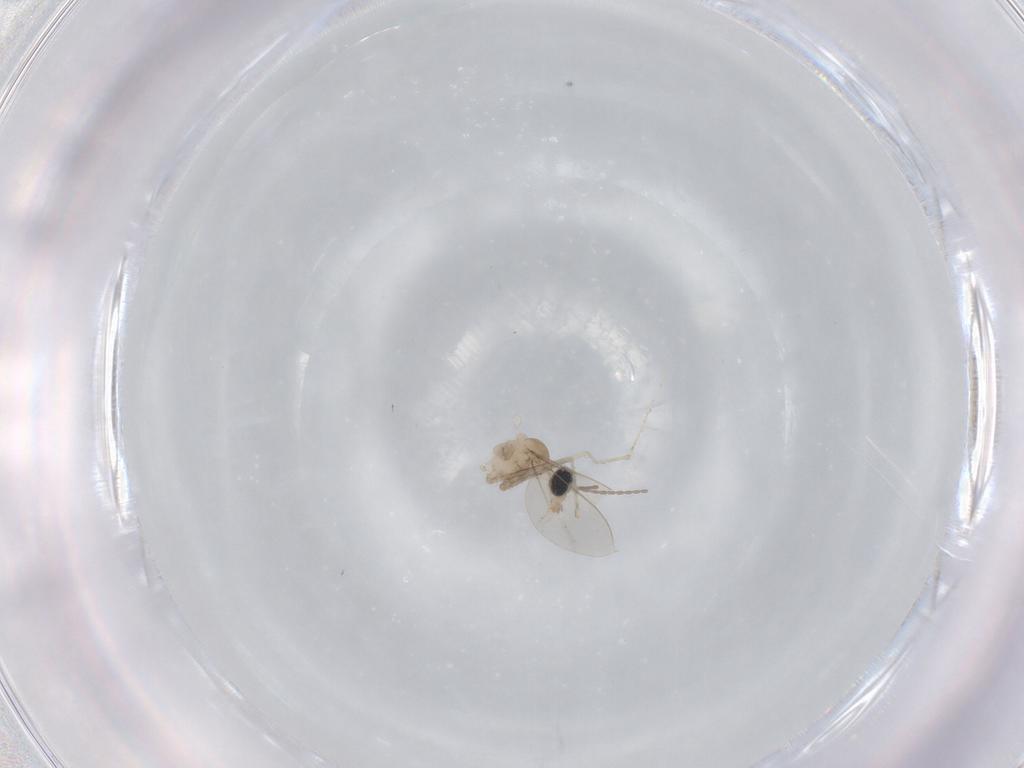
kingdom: Animalia
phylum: Arthropoda
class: Insecta
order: Diptera
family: Cecidomyiidae
